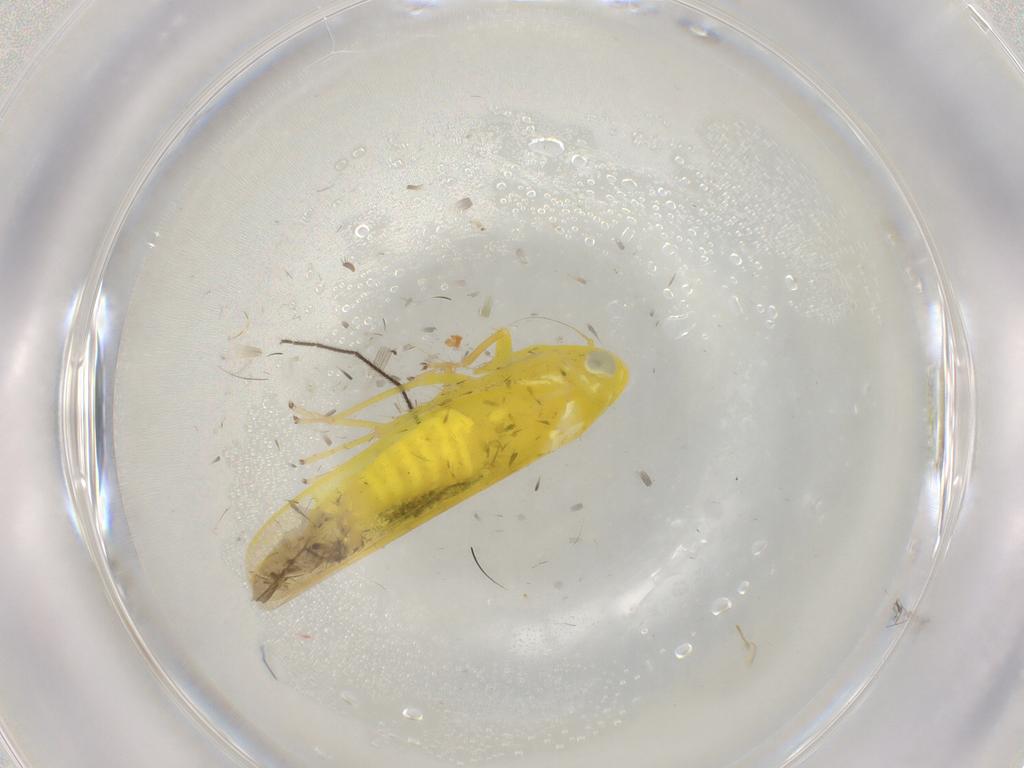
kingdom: Animalia
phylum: Arthropoda
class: Insecta
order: Hemiptera
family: Cicadellidae
